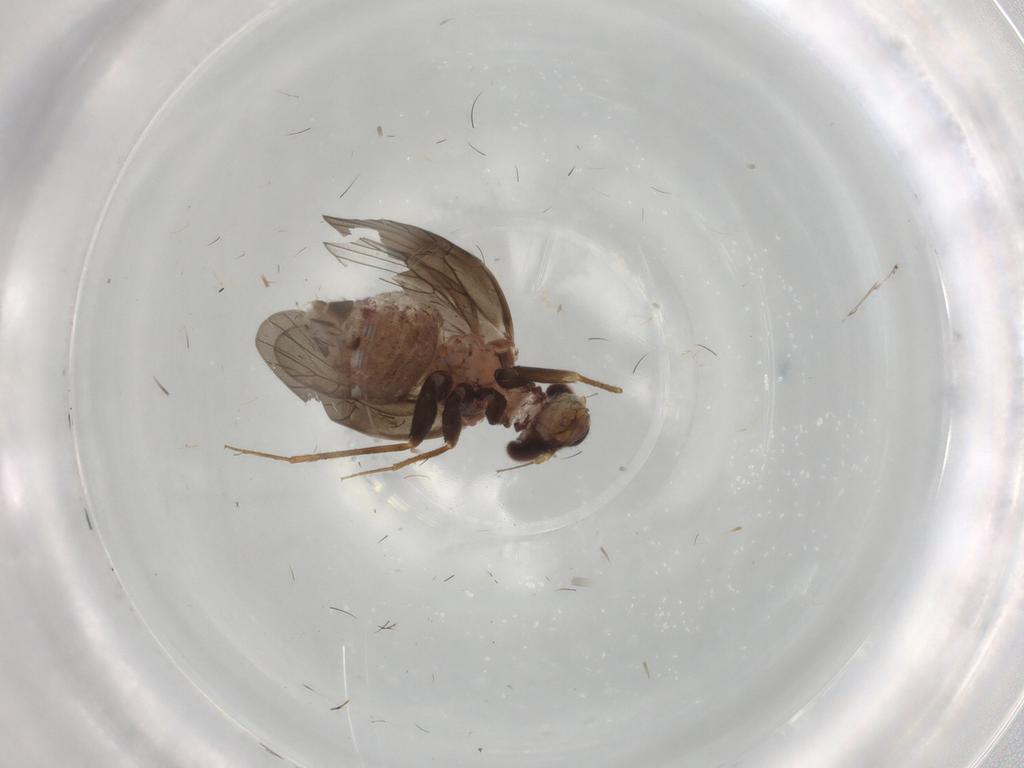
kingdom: Animalia
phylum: Arthropoda
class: Insecta
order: Psocodea
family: Lepidopsocidae
